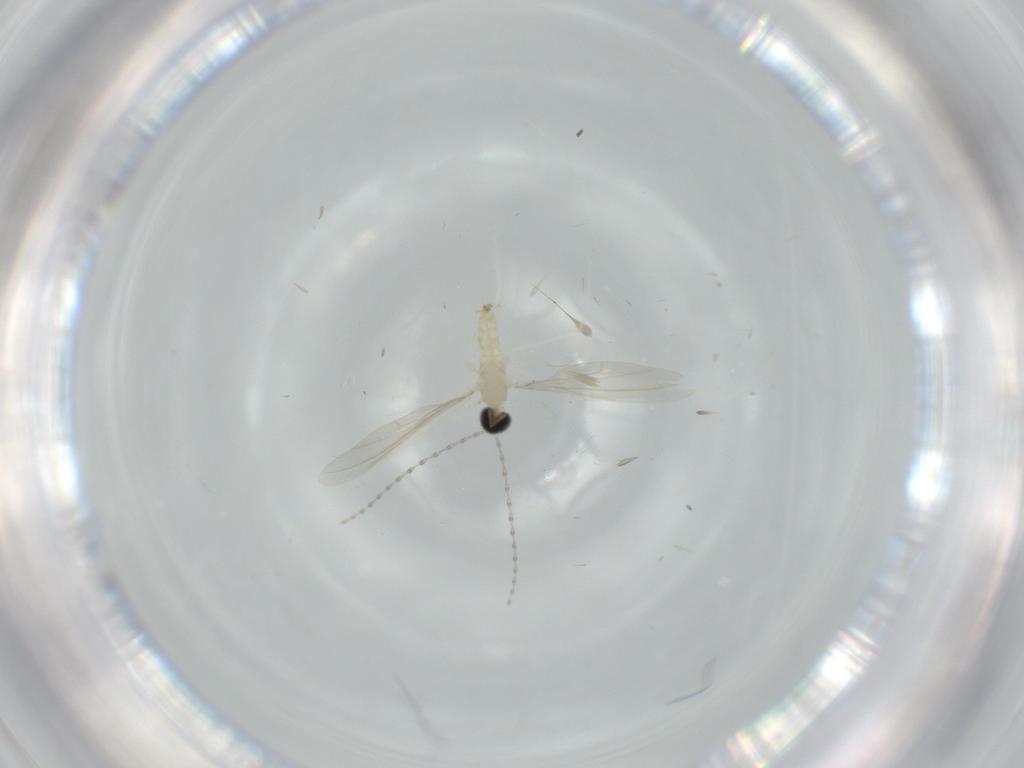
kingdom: Animalia
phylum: Arthropoda
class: Insecta
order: Diptera
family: Cecidomyiidae
